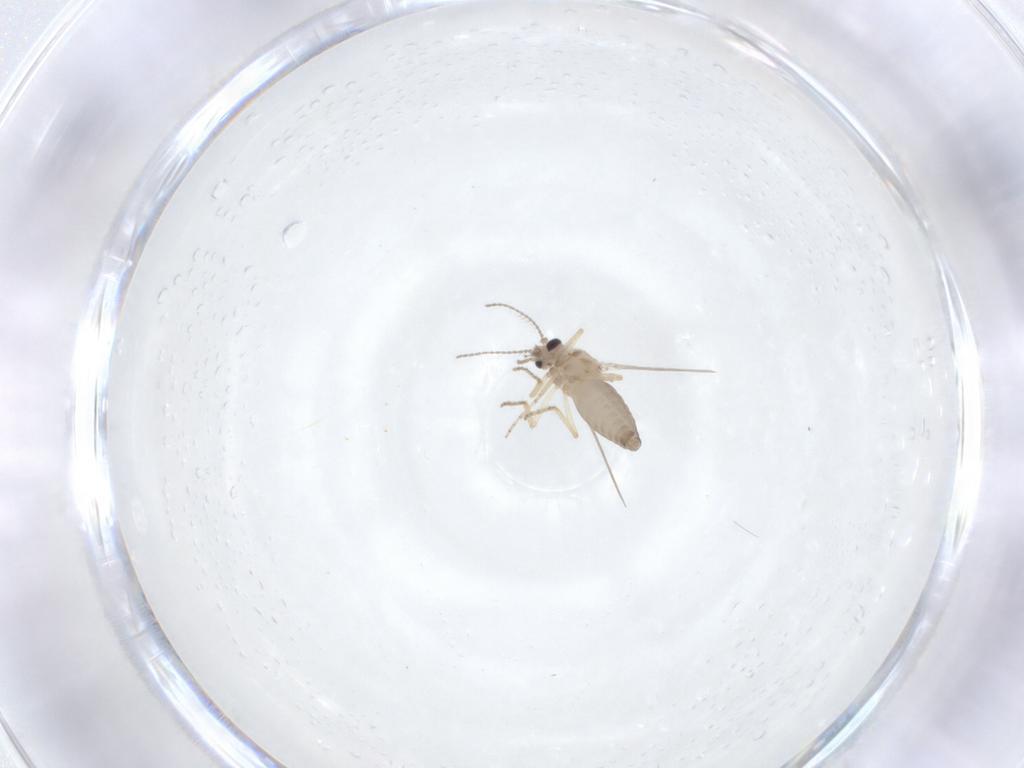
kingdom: Animalia
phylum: Arthropoda
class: Insecta
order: Diptera
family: Ceratopogonidae
